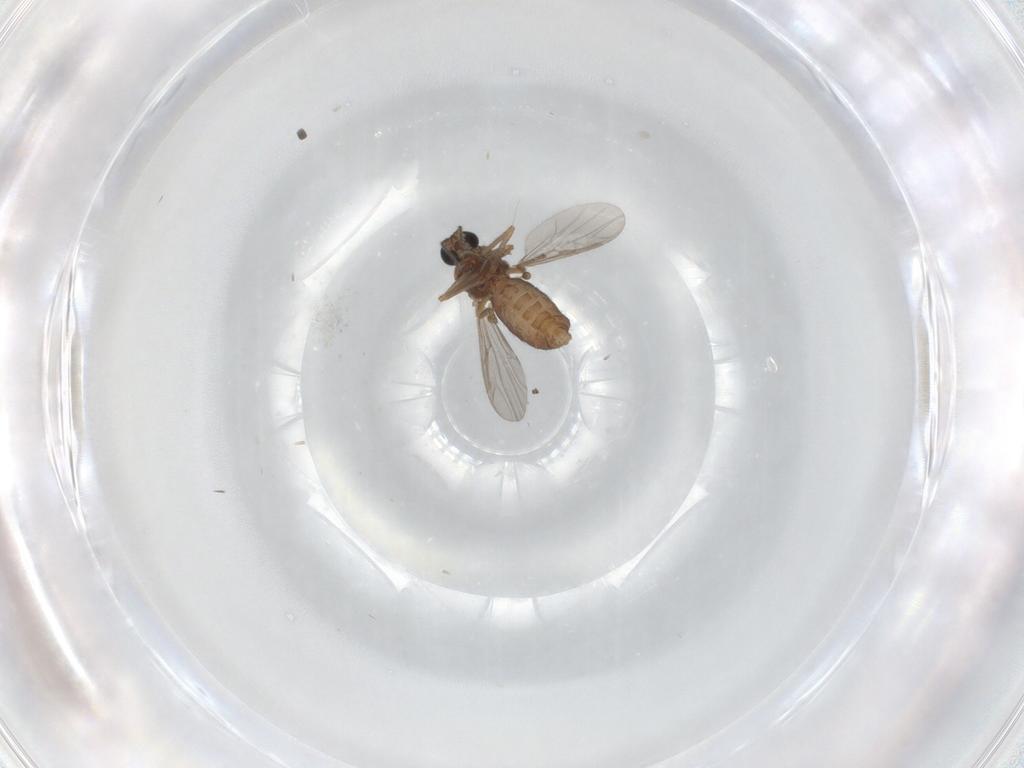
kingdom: Animalia
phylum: Arthropoda
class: Insecta
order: Diptera
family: Ceratopogonidae
